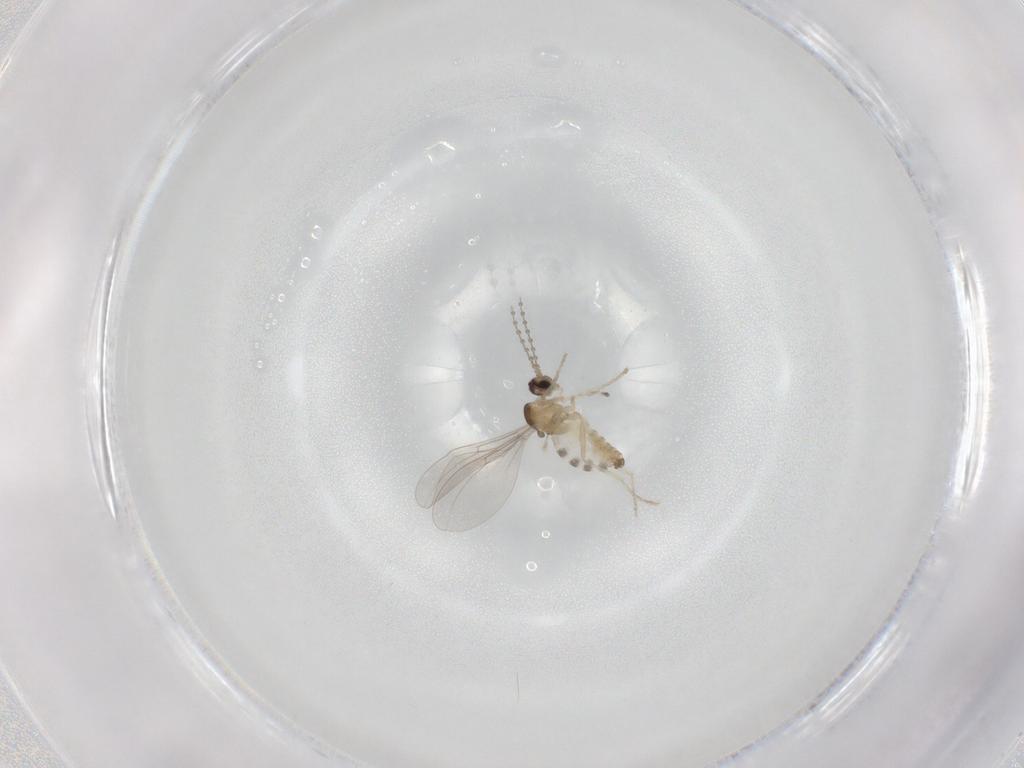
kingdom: Animalia
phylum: Arthropoda
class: Insecta
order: Diptera
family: Cecidomyiidae
